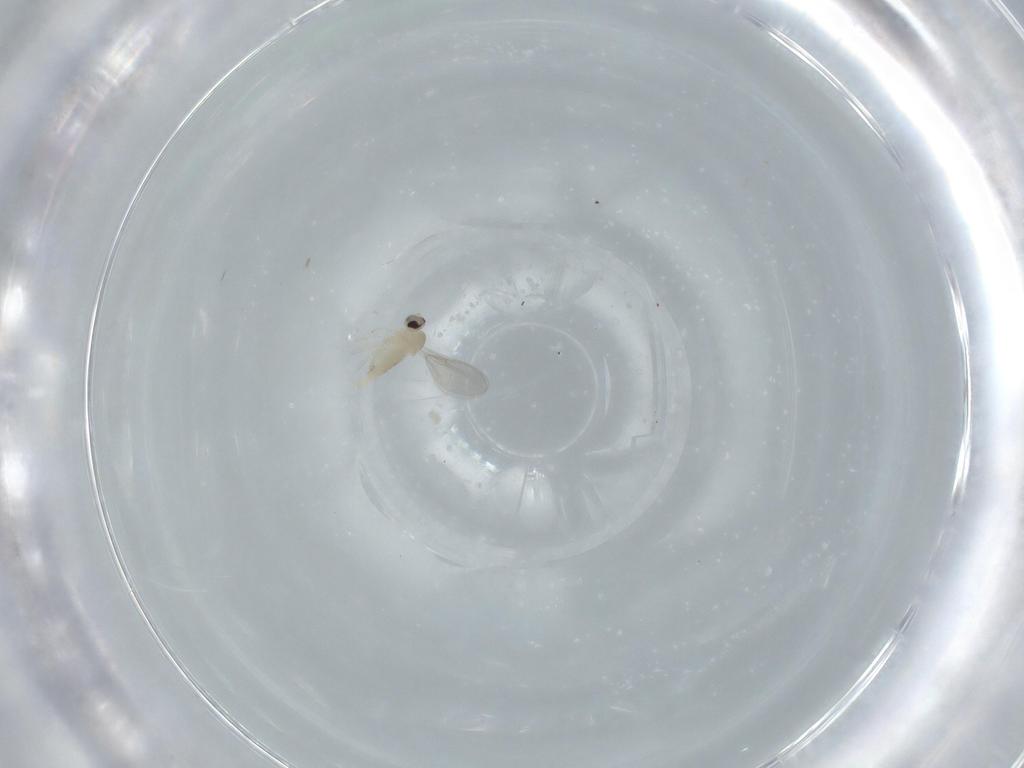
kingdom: Animalia
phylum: Arthropoda
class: Insecta
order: Diptera
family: Cecidomyiidae
